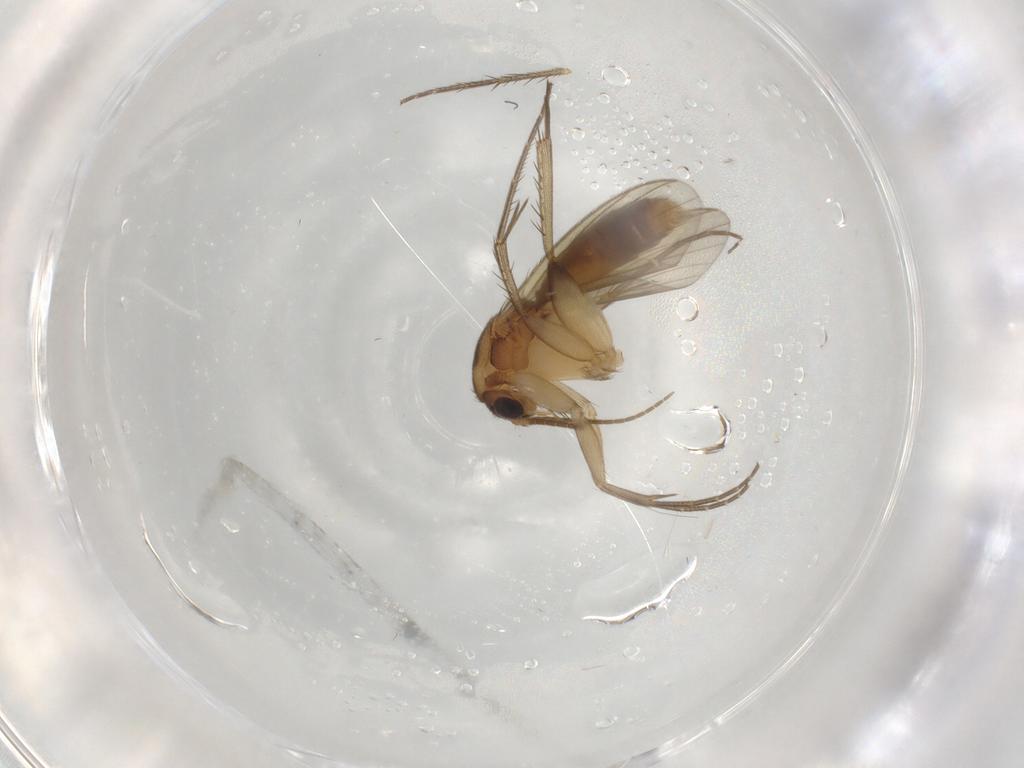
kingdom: Animalia
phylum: Arthropoda
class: Insecta
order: Diptera
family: Mycetophilidae
